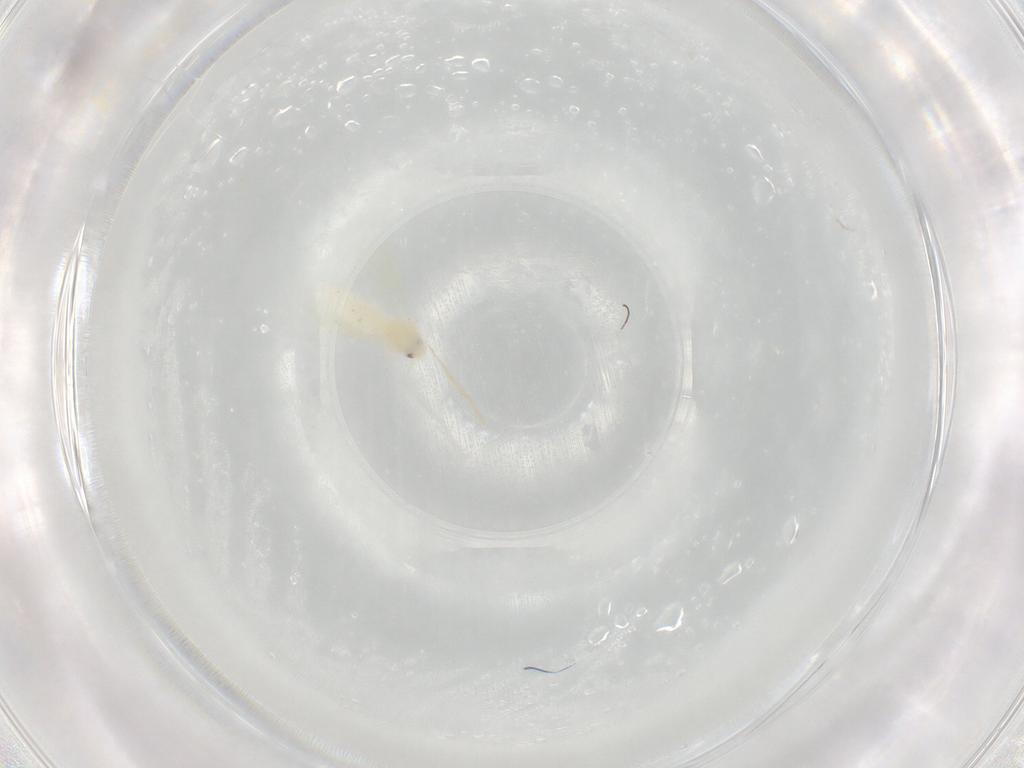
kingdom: Animalia
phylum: Arthropoda
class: Insecta
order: Hemiptera
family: Aleyrodidae
